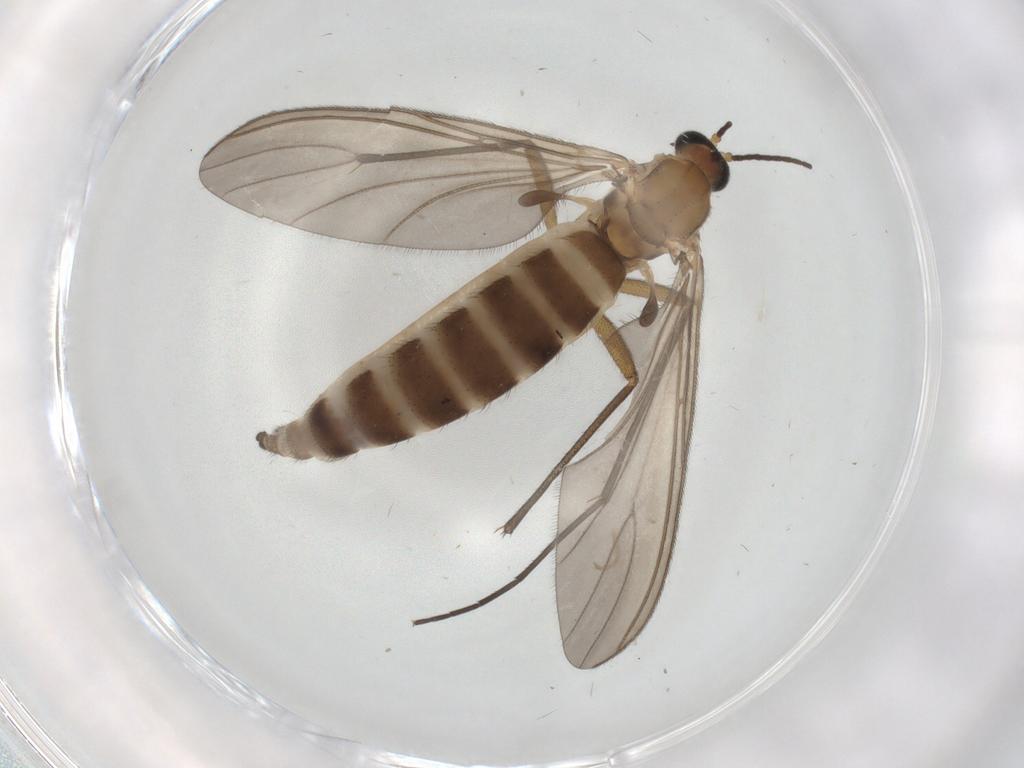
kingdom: Animalia
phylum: Arthropoda
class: Insecta
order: Diptera
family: Sciaridae
